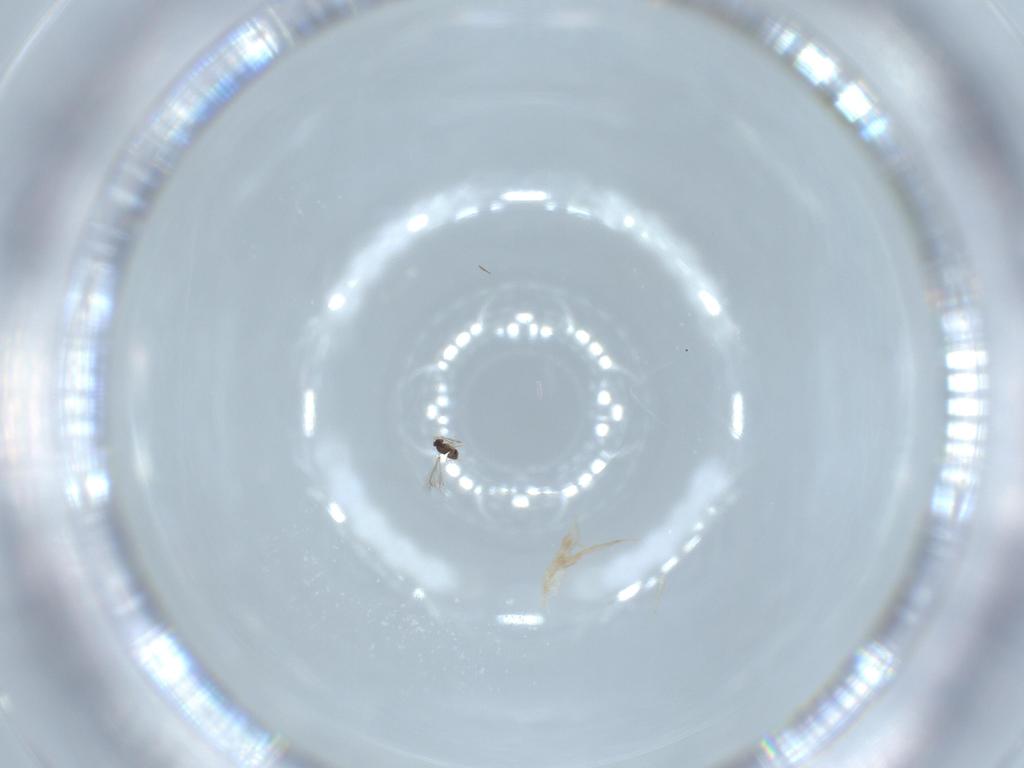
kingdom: Animalia
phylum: Arthropoda
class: Insecta
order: Hymenoptera
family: Aphelinidae
